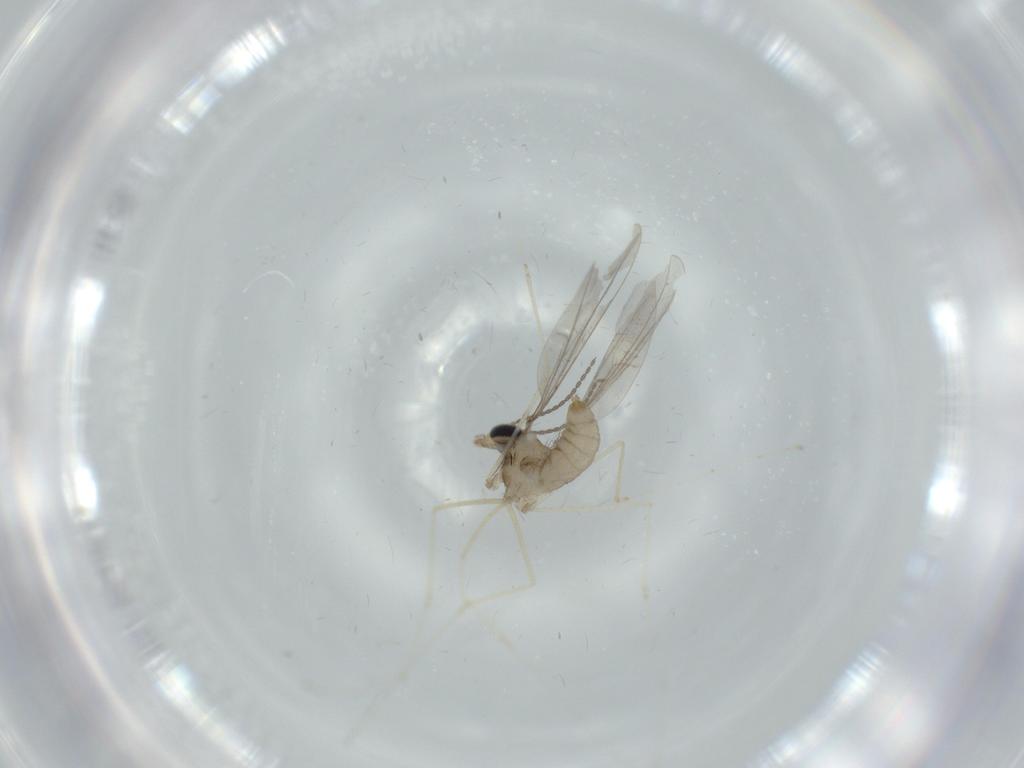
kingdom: Animalia
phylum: Arthropoda
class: Insecta
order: Diptera
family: Cecidomyiidae
